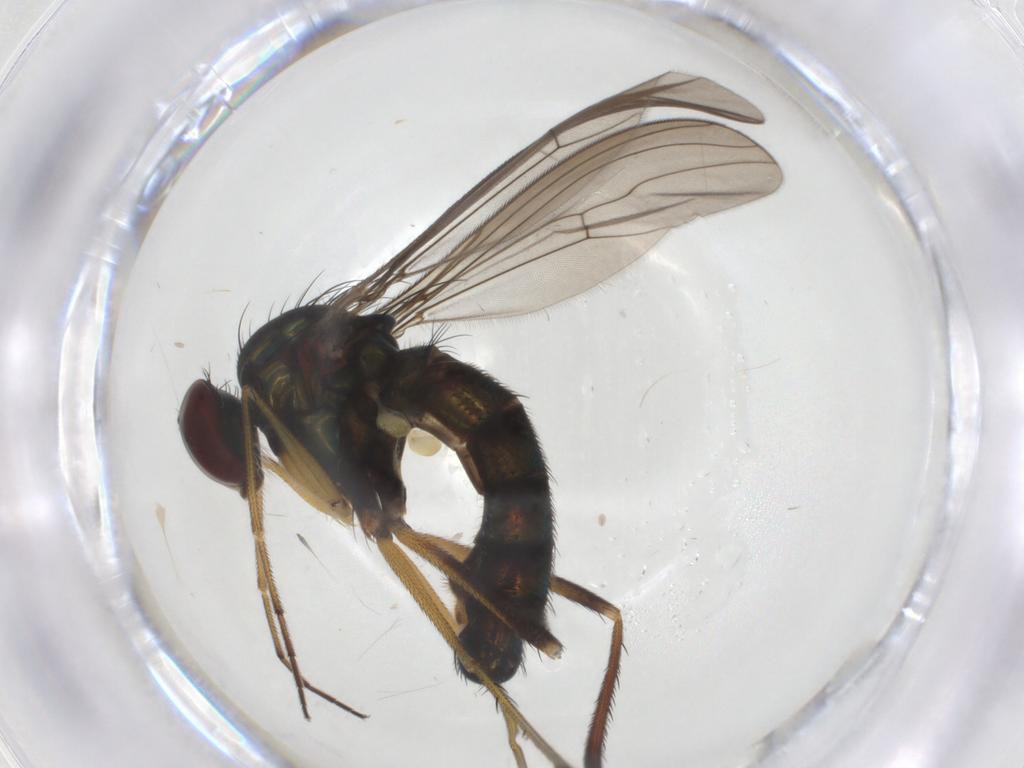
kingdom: Animalia
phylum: Arthropoda
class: Insecta
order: Diptera
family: Dolichopodidae
